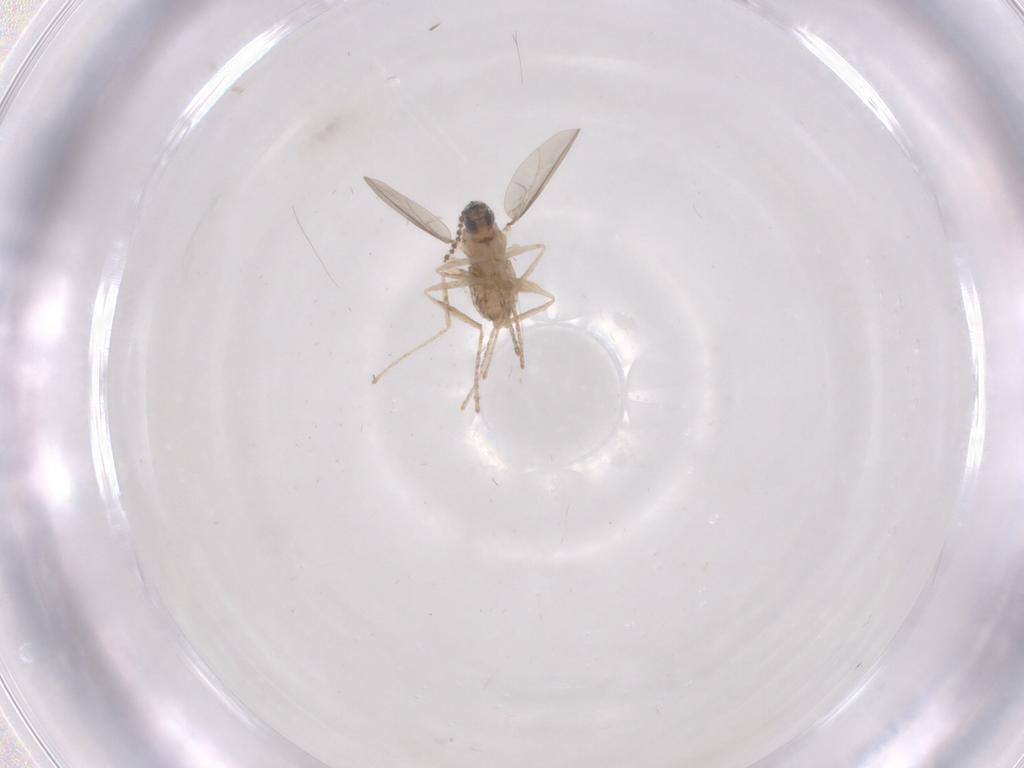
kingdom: Animalia
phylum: Arthropoda
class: Insecta
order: Diptera
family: Cecidomyiidae
